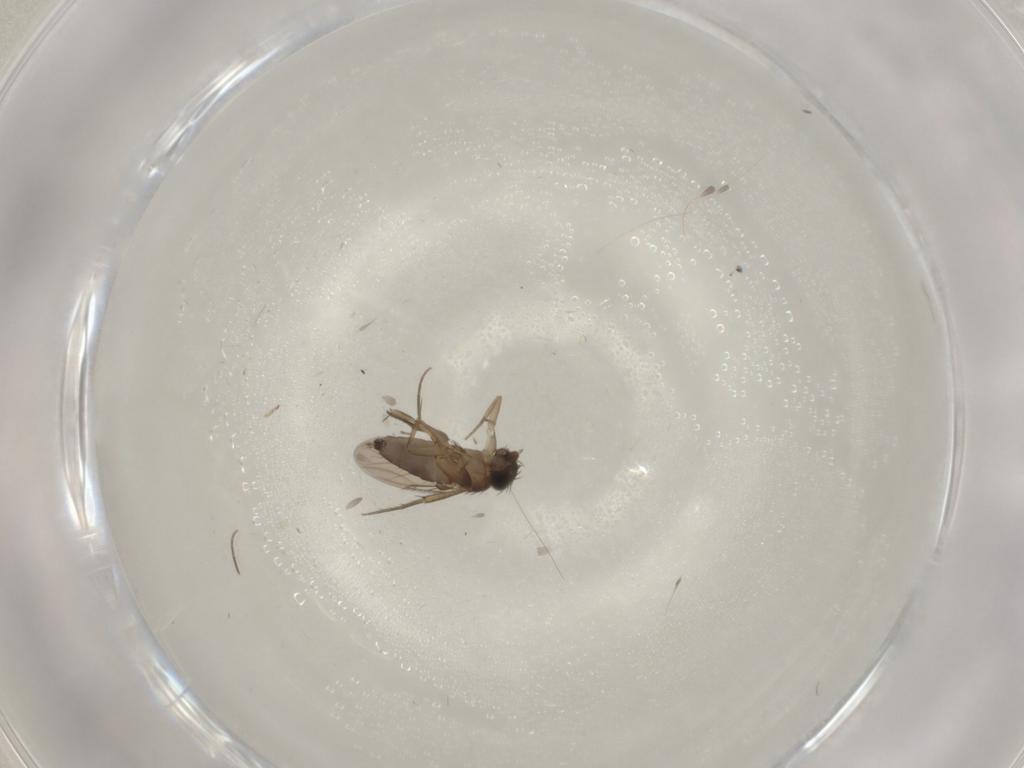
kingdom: Animalia
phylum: Arthropoda
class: Insecta
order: Diptera
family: Phoridae
